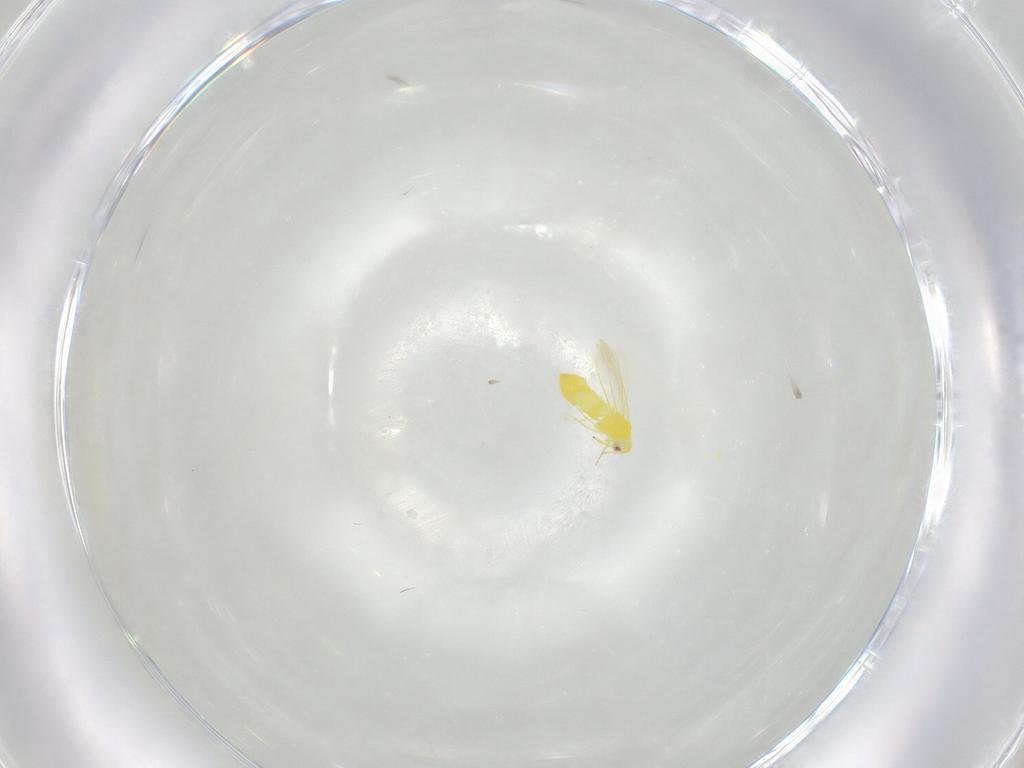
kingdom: Animalia
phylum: Arthropoda
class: Insecta
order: Hemiptera
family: Aleyrodidae
